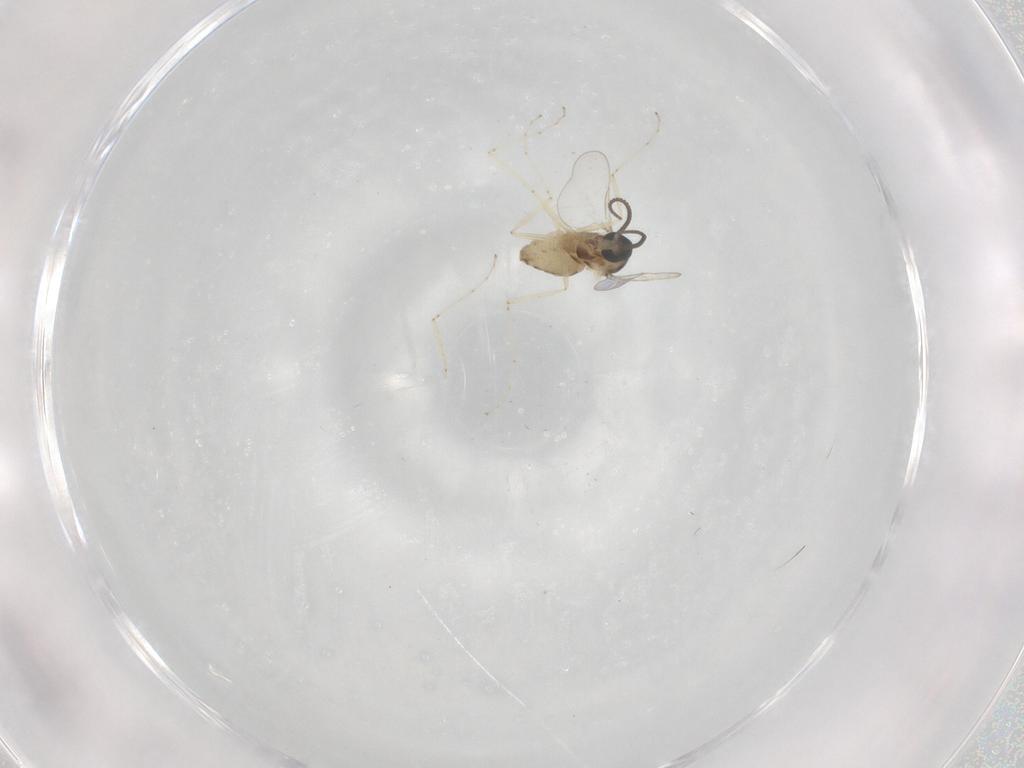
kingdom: Animalia
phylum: Arthropoda
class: Insecta
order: Diptera
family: Cecidomyiidae
